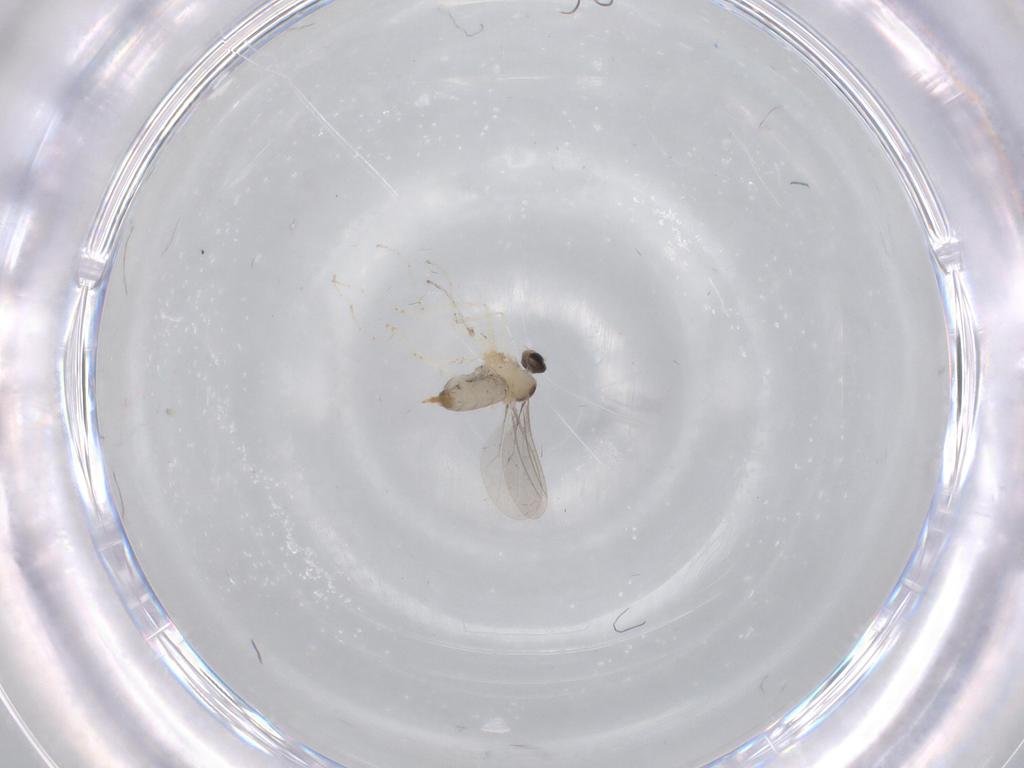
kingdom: Animalia
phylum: Arthropoda
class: Insecta
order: Diptera
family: Cecidomyiidae
